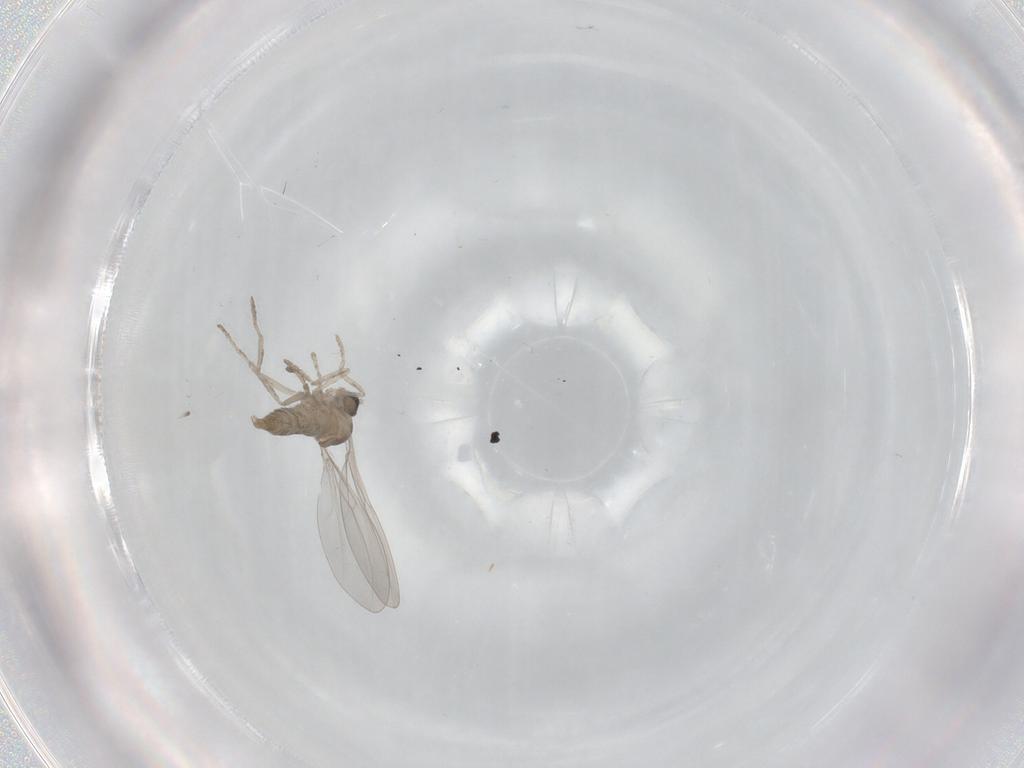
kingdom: Animalia
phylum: Arthropoda
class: Insecta
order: Diptera
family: Cecidomyiidae
